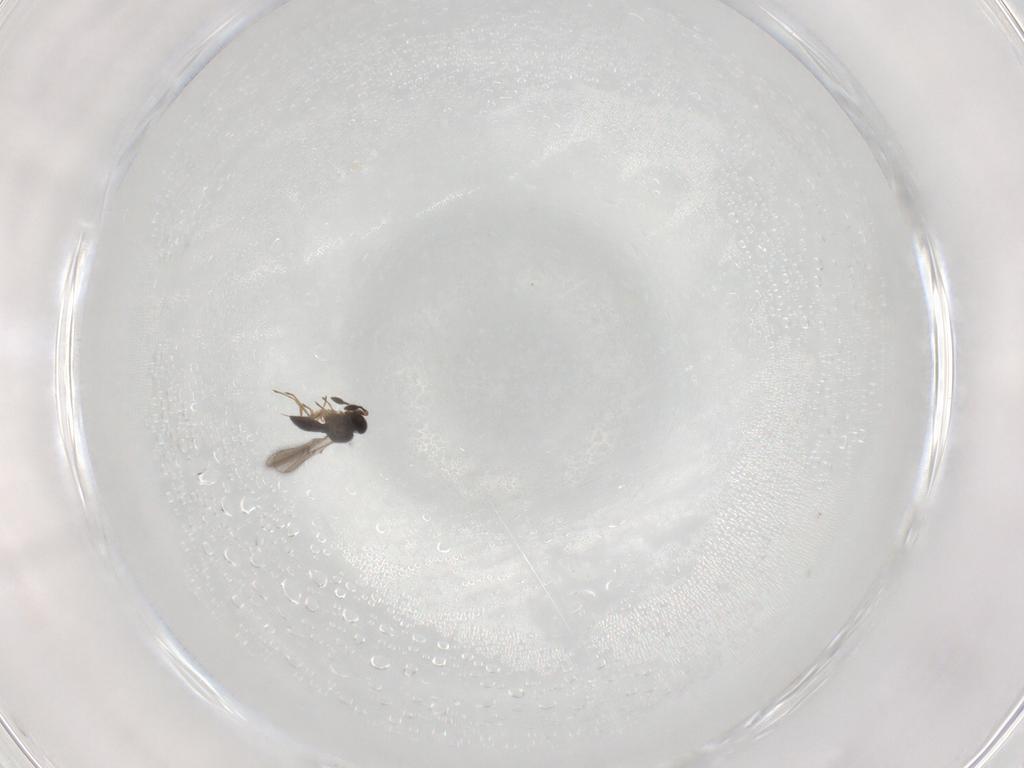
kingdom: Animalia
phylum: Arthropoda
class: Insecta
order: Hymenoptera
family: Scelionidae
